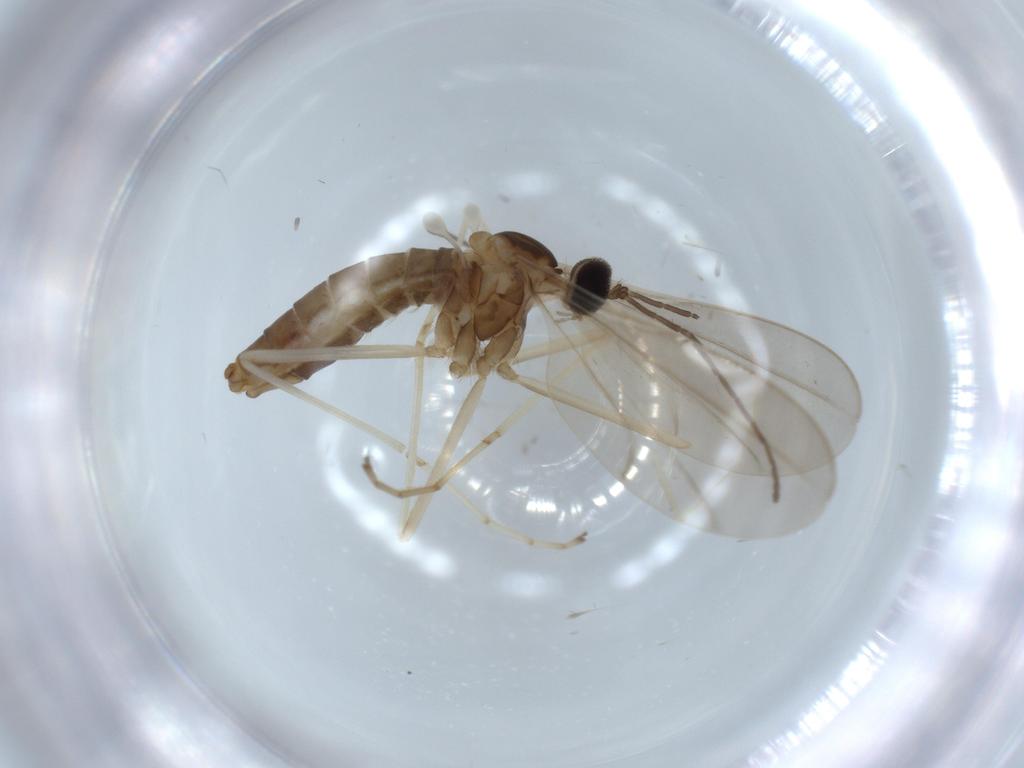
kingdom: Animalia
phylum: Arthropoda
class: Insecta
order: Diptera
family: Cecidomyiidae
